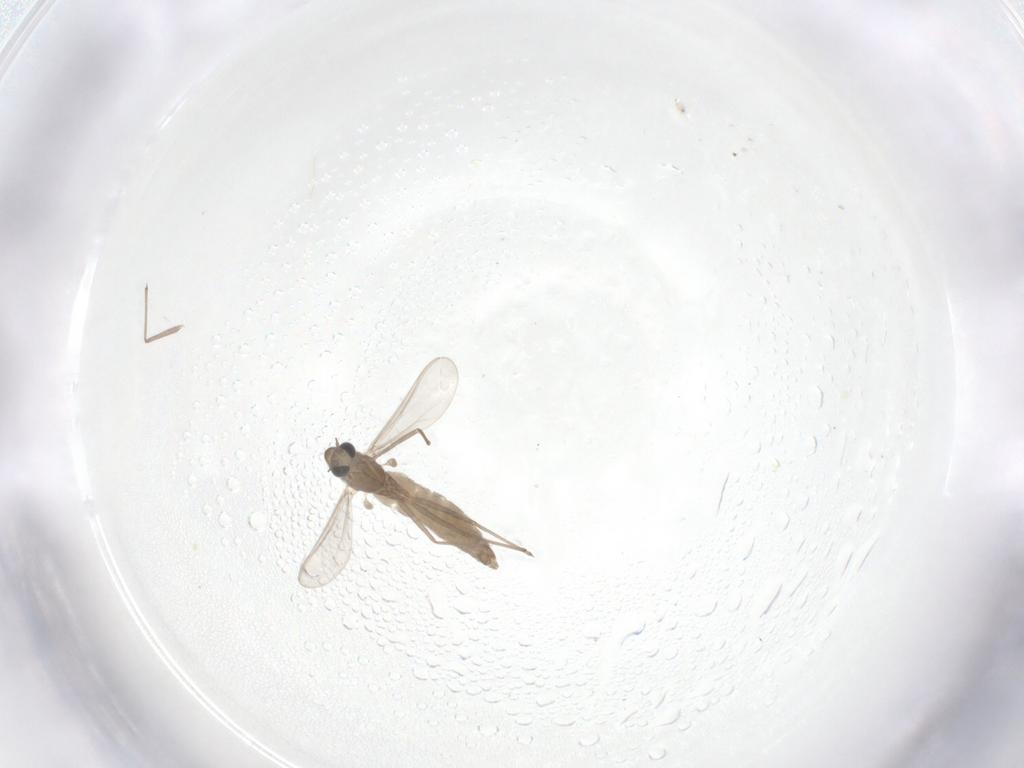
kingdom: Animalia
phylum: Arthropoda
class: Insecta
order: Diptera
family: Chironomidae
